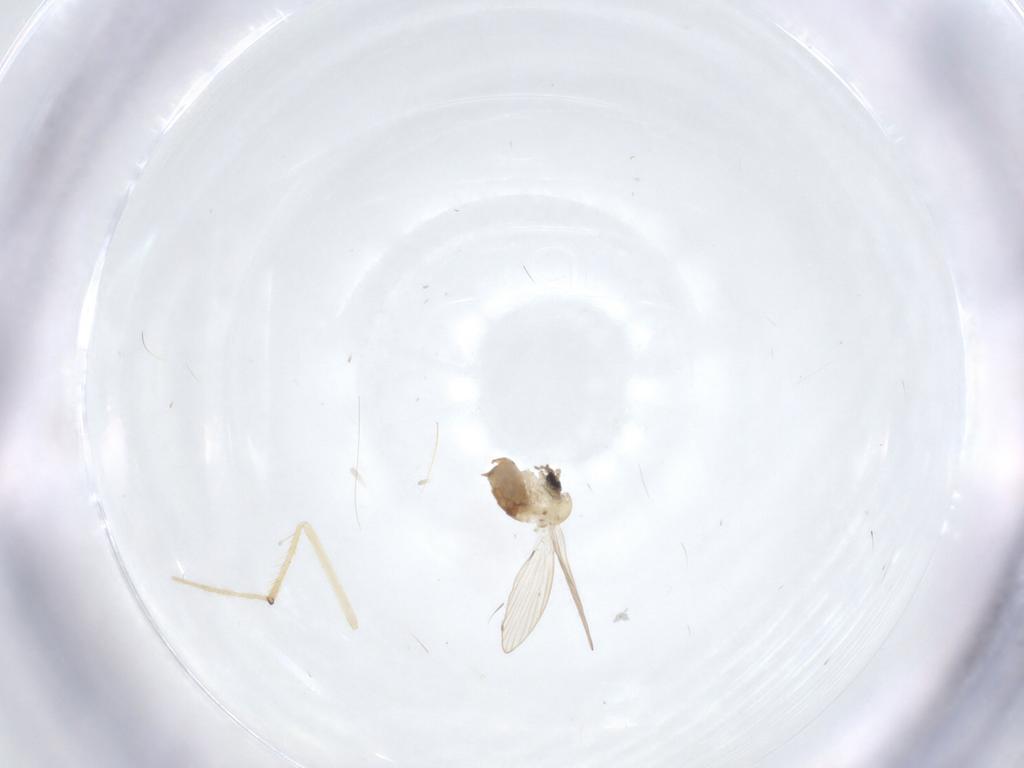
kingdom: Animalia
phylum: Arthropoda
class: Insecta
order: Diptera
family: Psychodidae
